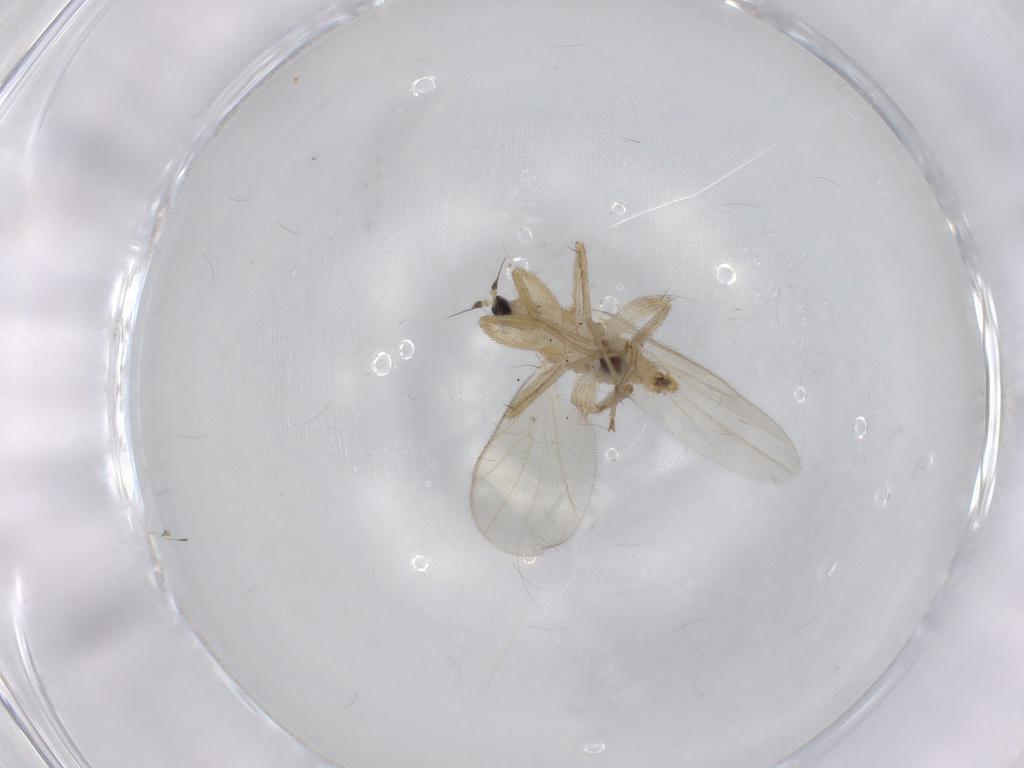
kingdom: Animalia
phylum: Arthropoda
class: Insecta
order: Diptera
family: Hybotidae
